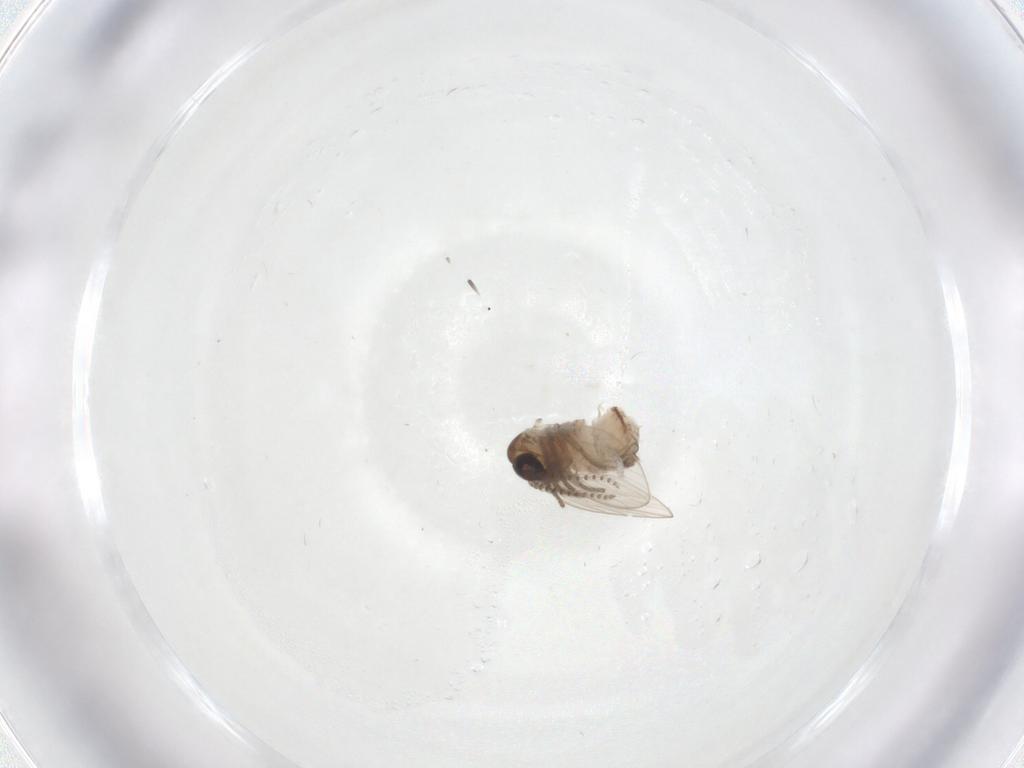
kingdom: Animalia
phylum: Arthropoda
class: Insecta
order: Diptera
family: Psychodidae
